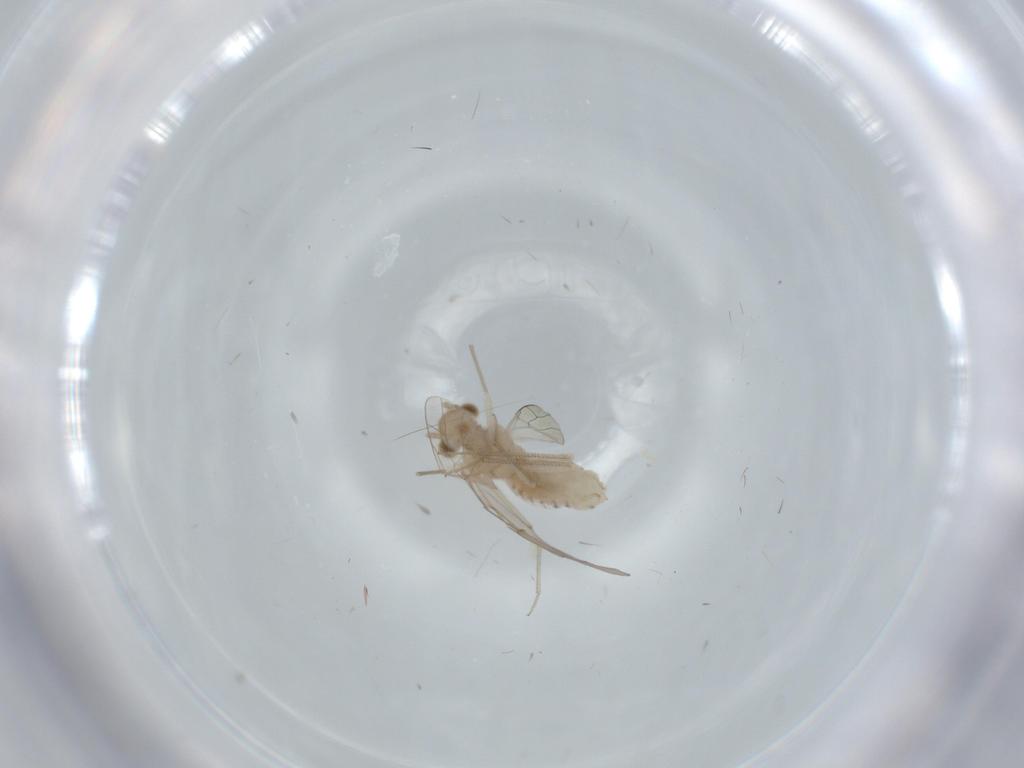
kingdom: Animalia
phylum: Arthropoda
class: Insecta
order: Psocodea
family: Lachesillidae
